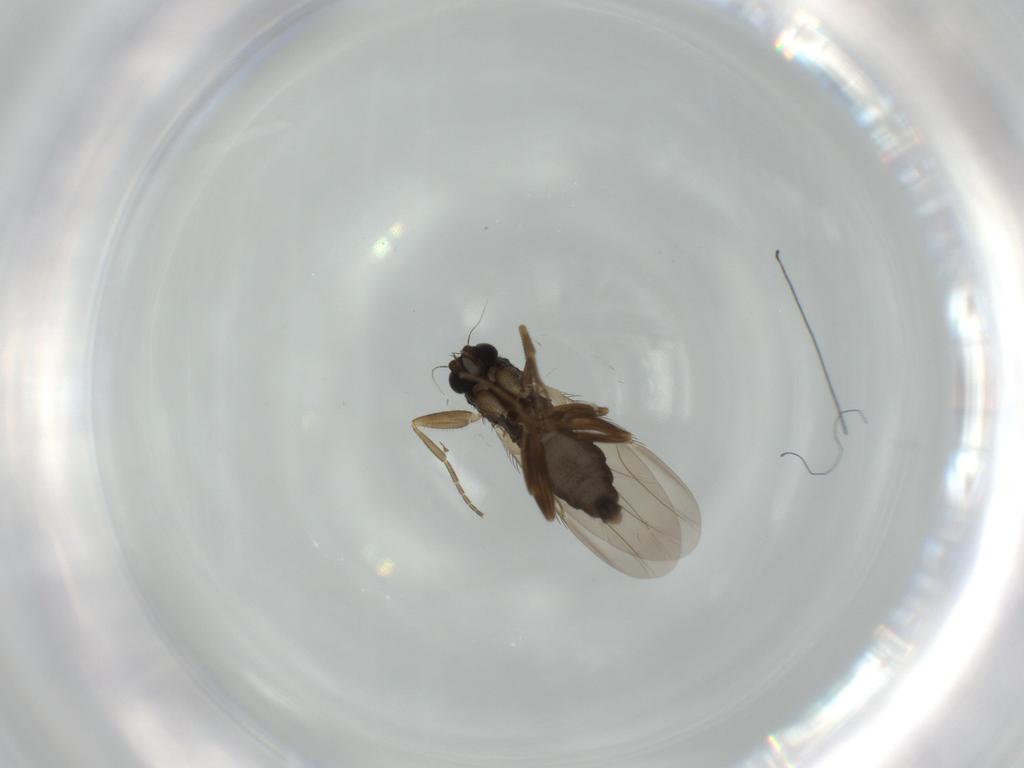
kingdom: Animalia
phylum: Arthropoda
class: Insecta
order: Diptera
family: Phoridae
